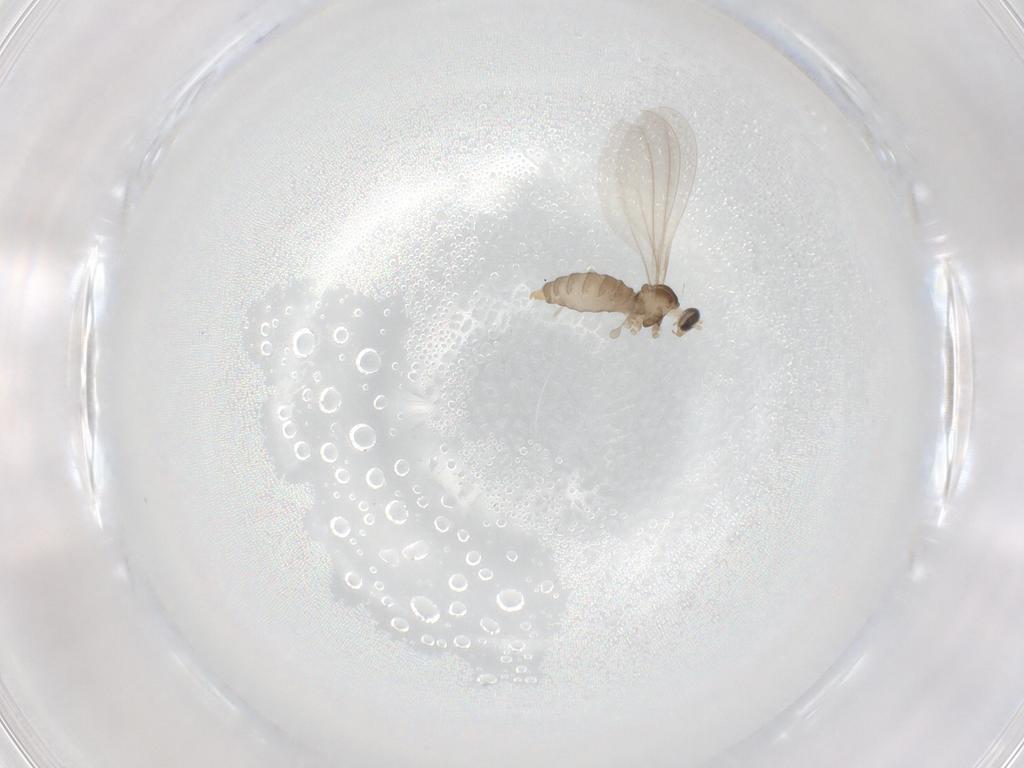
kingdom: Animalia
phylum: Arthropoda
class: Insecta
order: Diptera
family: Cecidomyiidae
